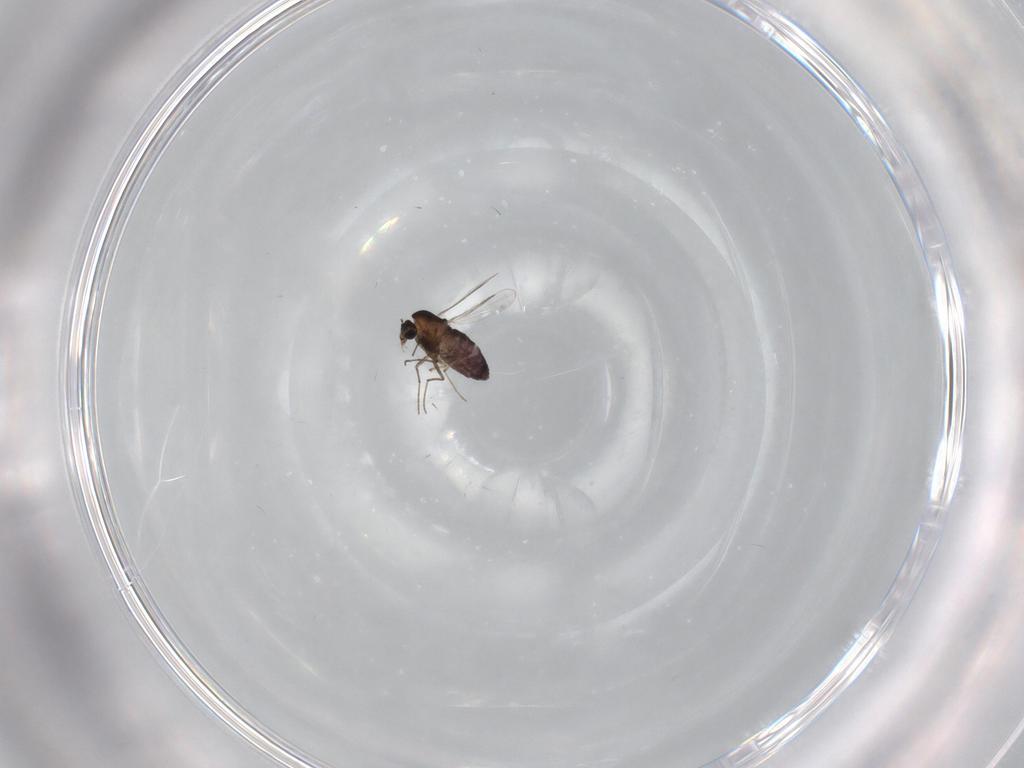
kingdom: Animalia
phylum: Arthropoda
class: Insecta
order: Diptera
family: Chironomidae
